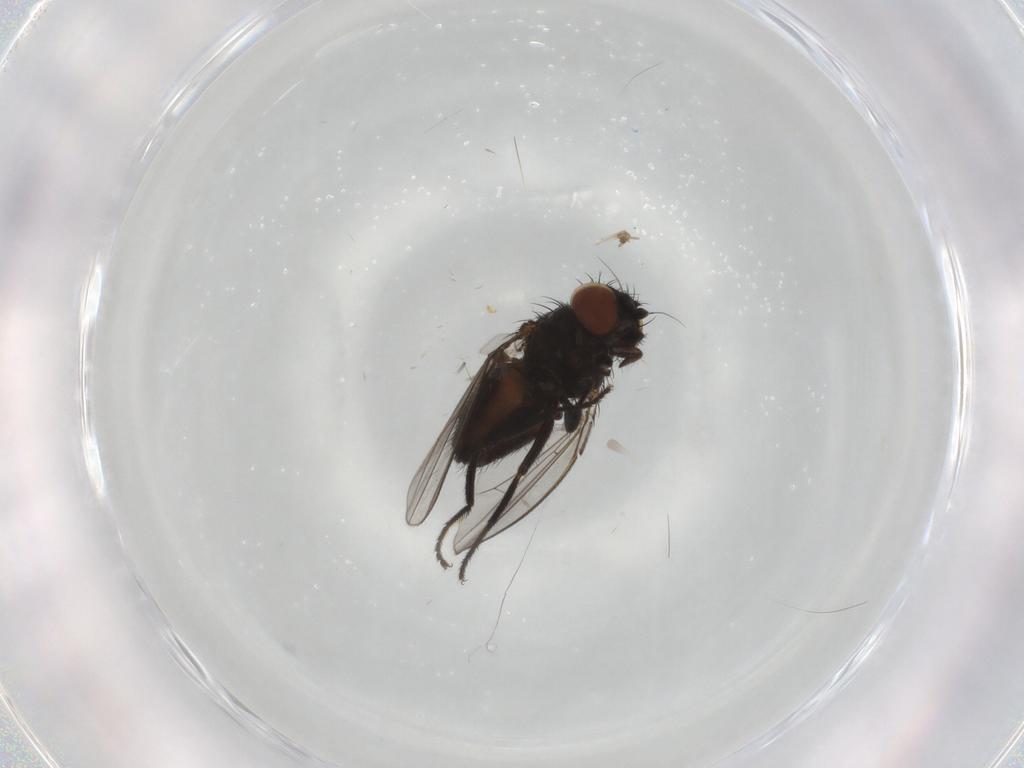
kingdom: Animalia
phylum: Arthropoda
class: Insecta
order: Diptera
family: Milichiidae
